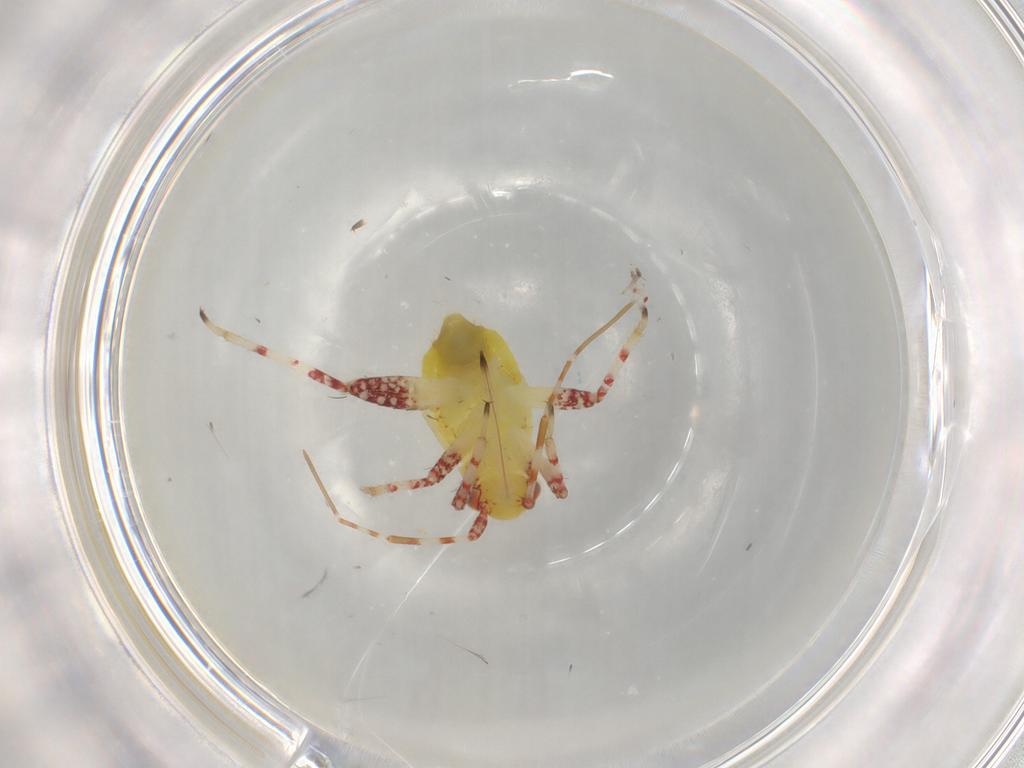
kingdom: Animalia
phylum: Arthropoda
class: Insecta
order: Hemiptera
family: Miridae
